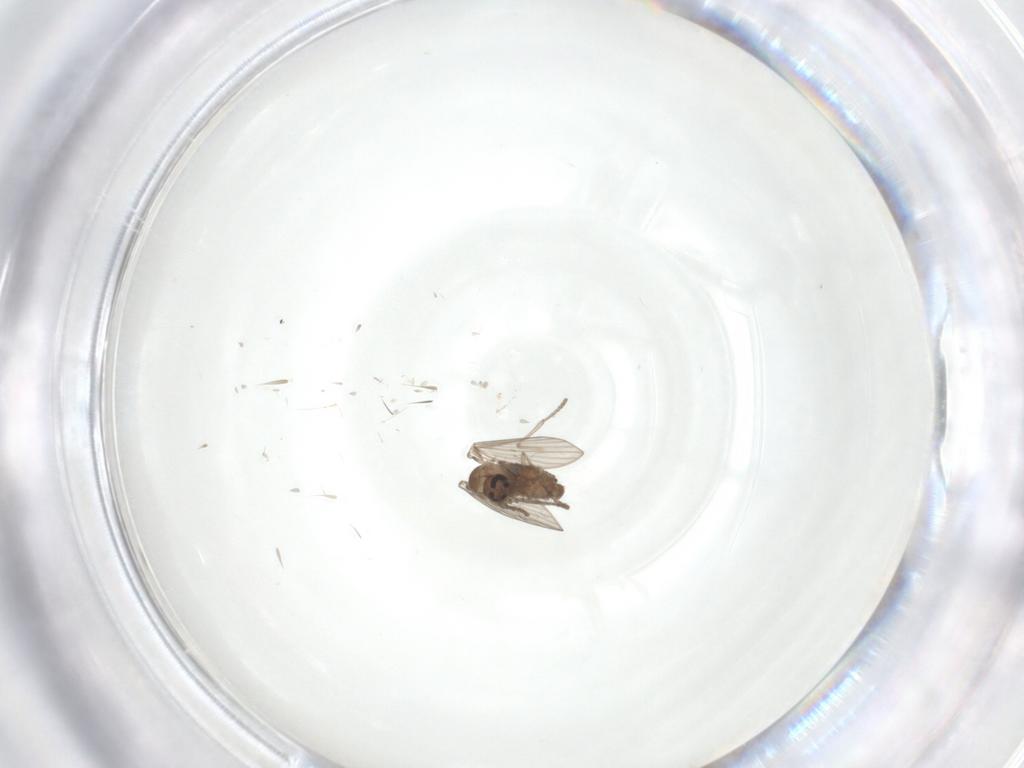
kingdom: Animalia
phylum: Arthropoda
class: Insecta
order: Diptera
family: Psychodidae
